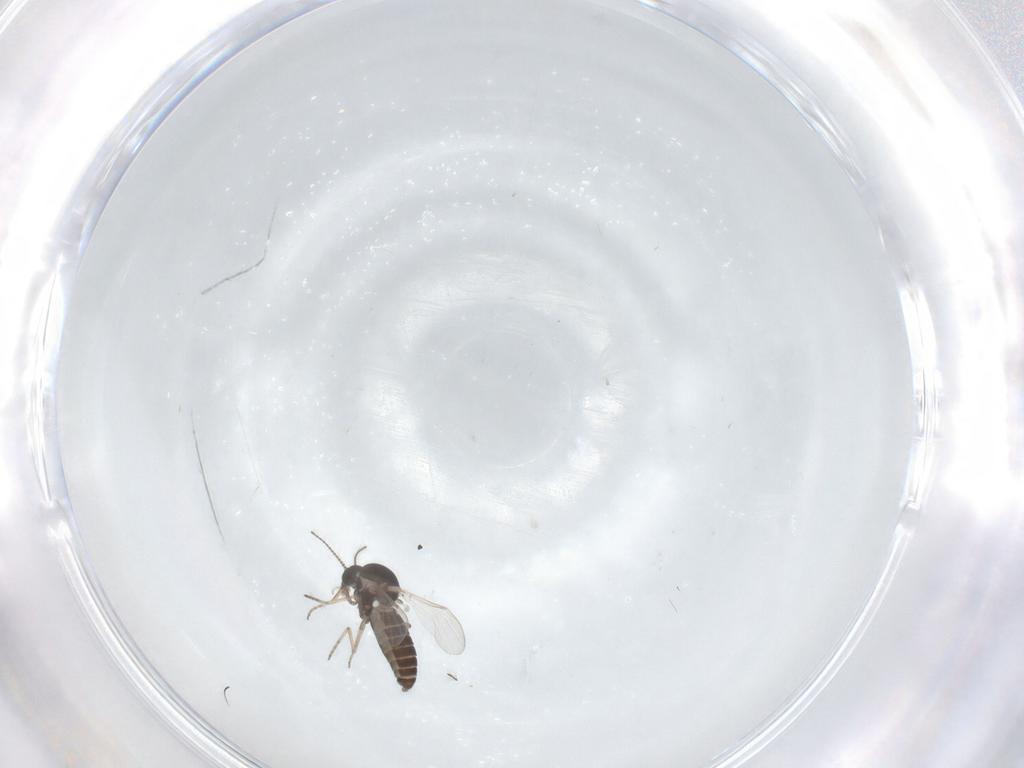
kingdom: Animalia
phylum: Arthropoda
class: Insecta
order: Diptera
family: Ceratopogonidae
